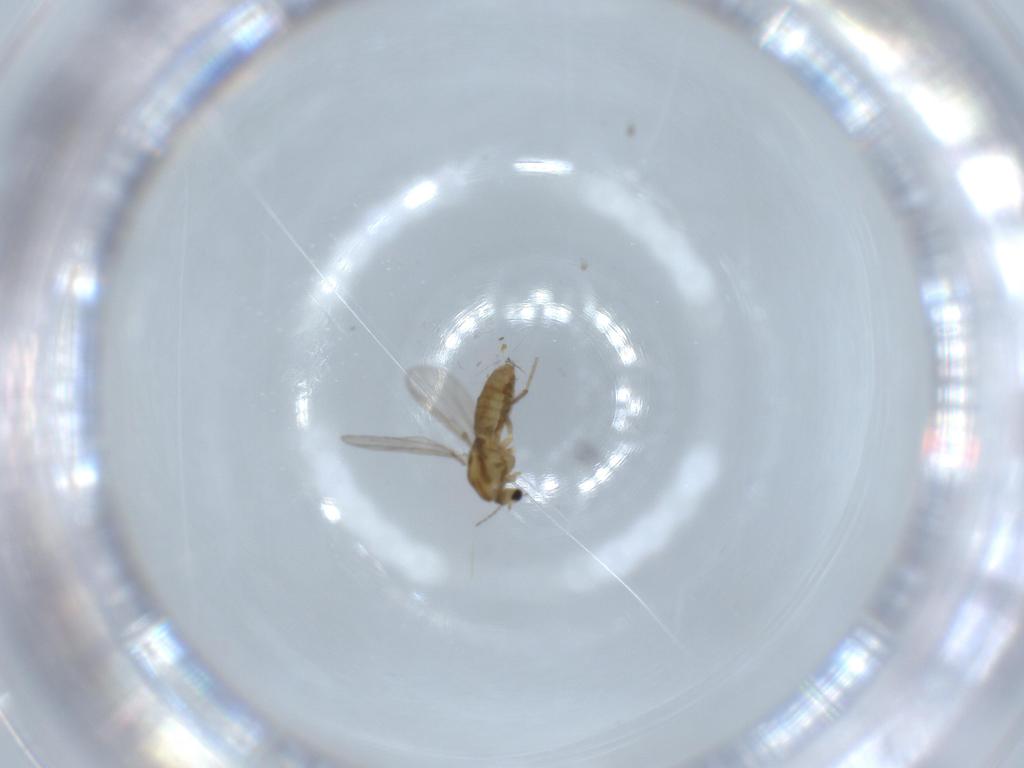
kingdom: Animalia
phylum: Arthropoda
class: Insecta
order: Diptera
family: Chironomidae
